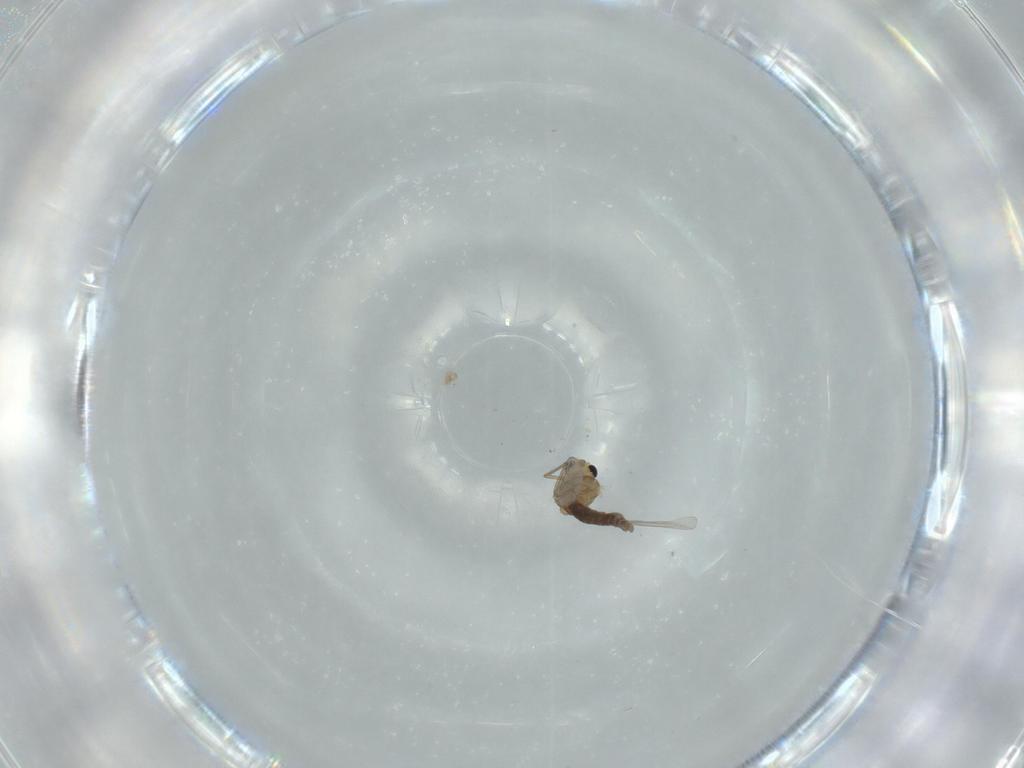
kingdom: Animalia
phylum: Arthropoda
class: Insecta
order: Diptera
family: Chironomidae
